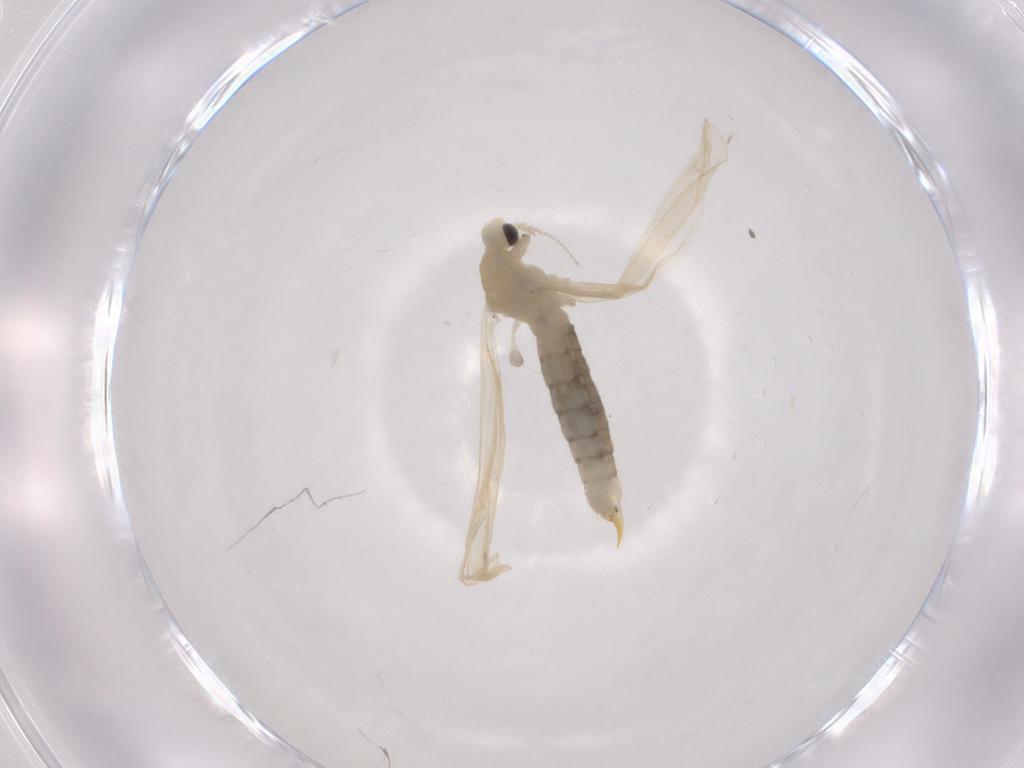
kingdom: Animalia
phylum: Arthropoda
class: Insecta
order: Diptera
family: Limoniidae
